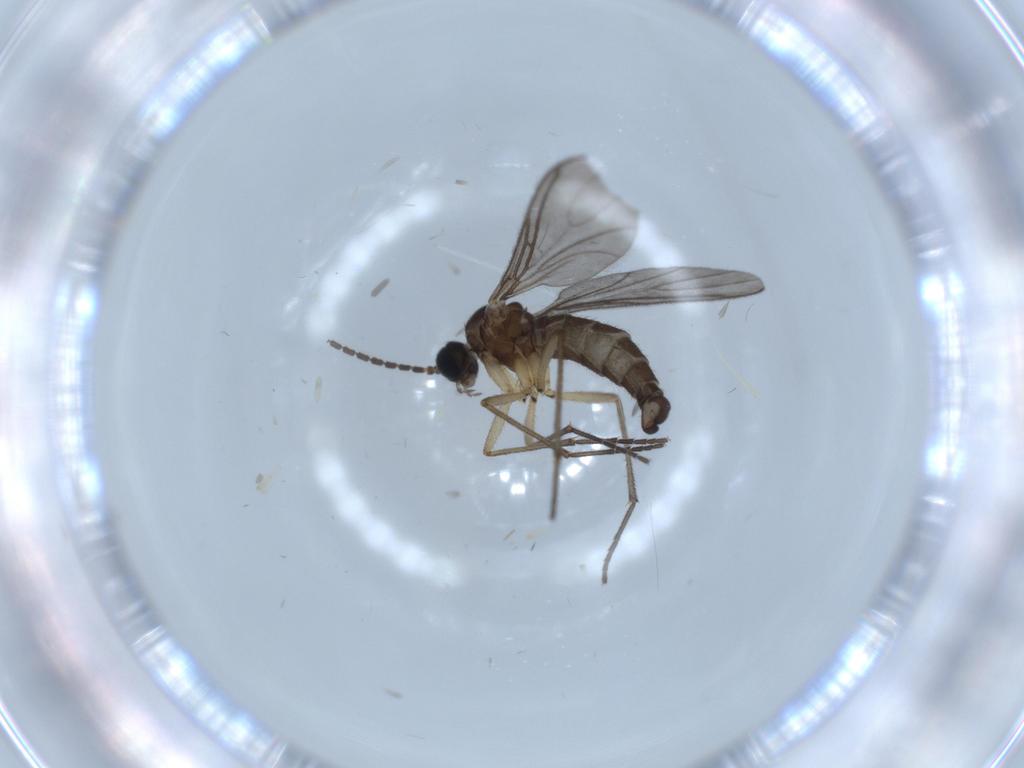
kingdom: Animalia
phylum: Arthropoda
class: Insecta
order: Diptera
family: Sciaridae
